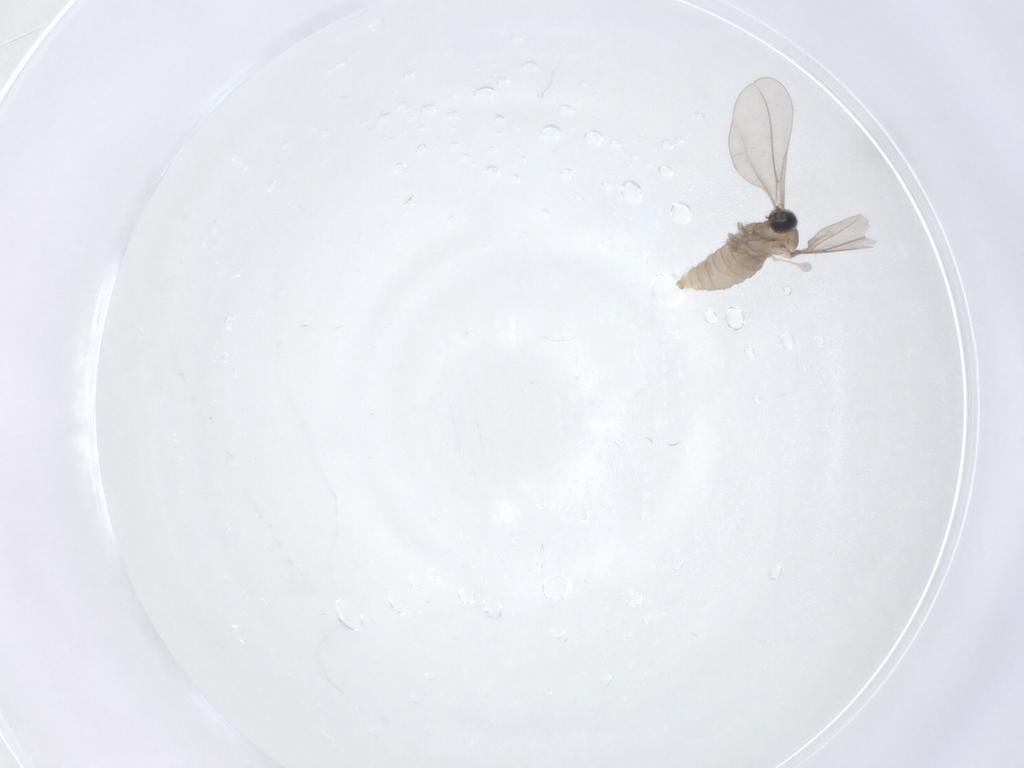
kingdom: Animalia
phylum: Arthropoda
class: Insecta
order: Diptera
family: Cecidomyiidae
